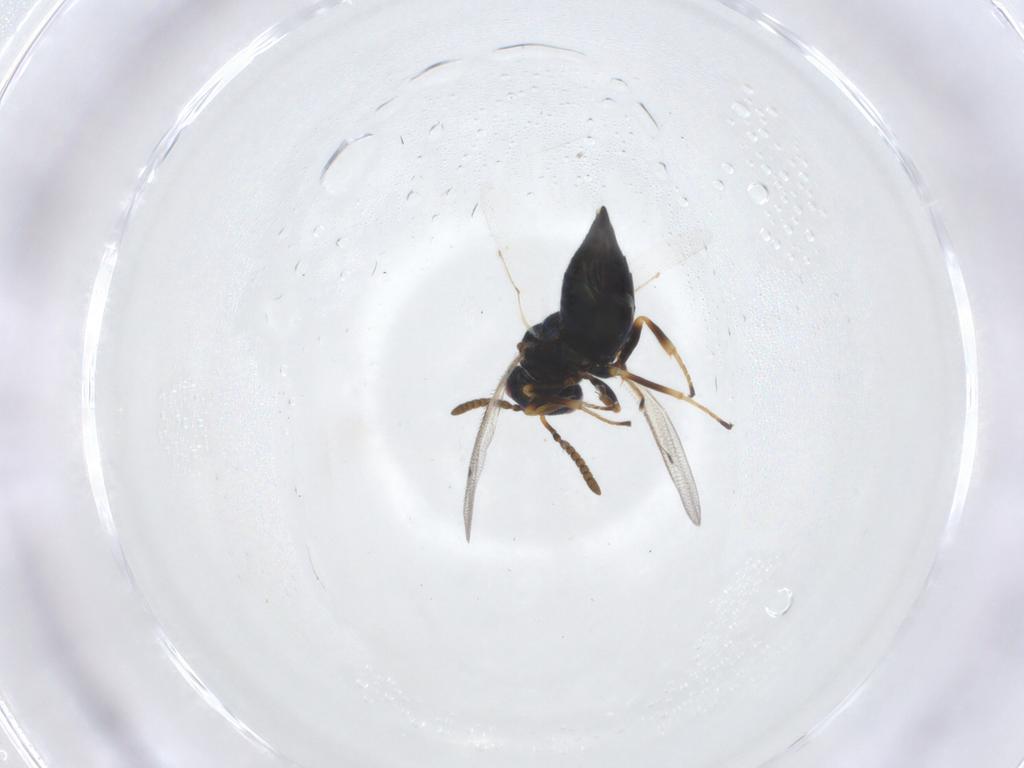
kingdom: Animalia
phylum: Arthropoda
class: Insecta
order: Hymenoptera
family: Pteromalidae
